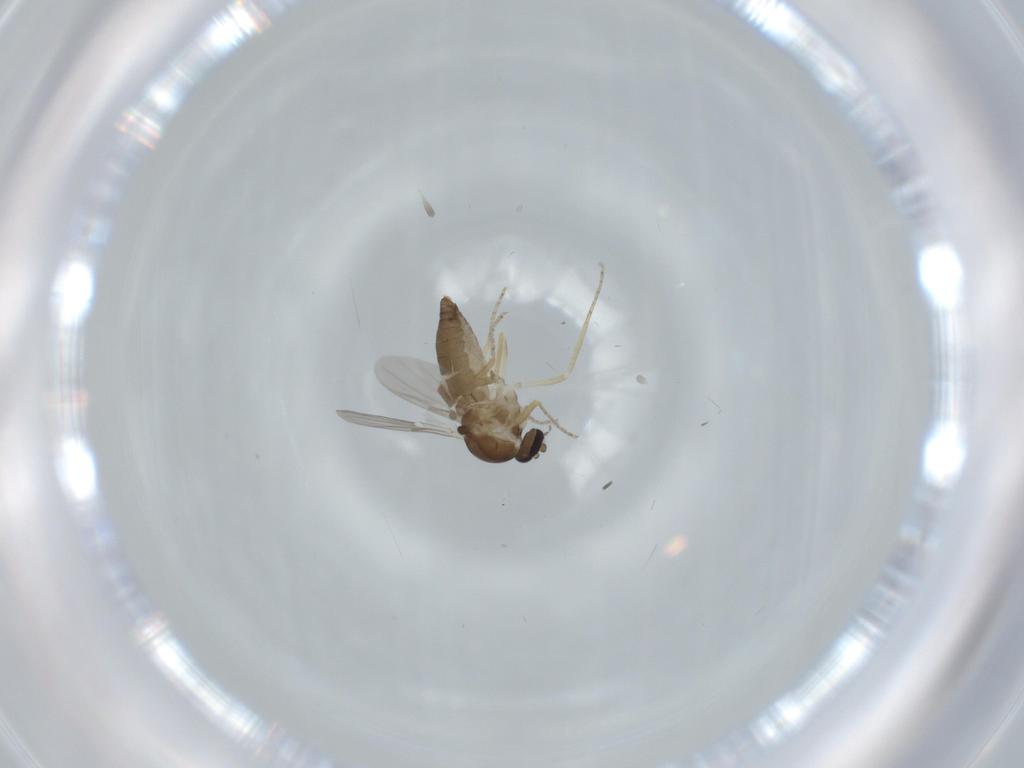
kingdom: Animalia
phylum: Arthropoda
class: Insecta
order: Diptera
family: Ceratopogonidae
